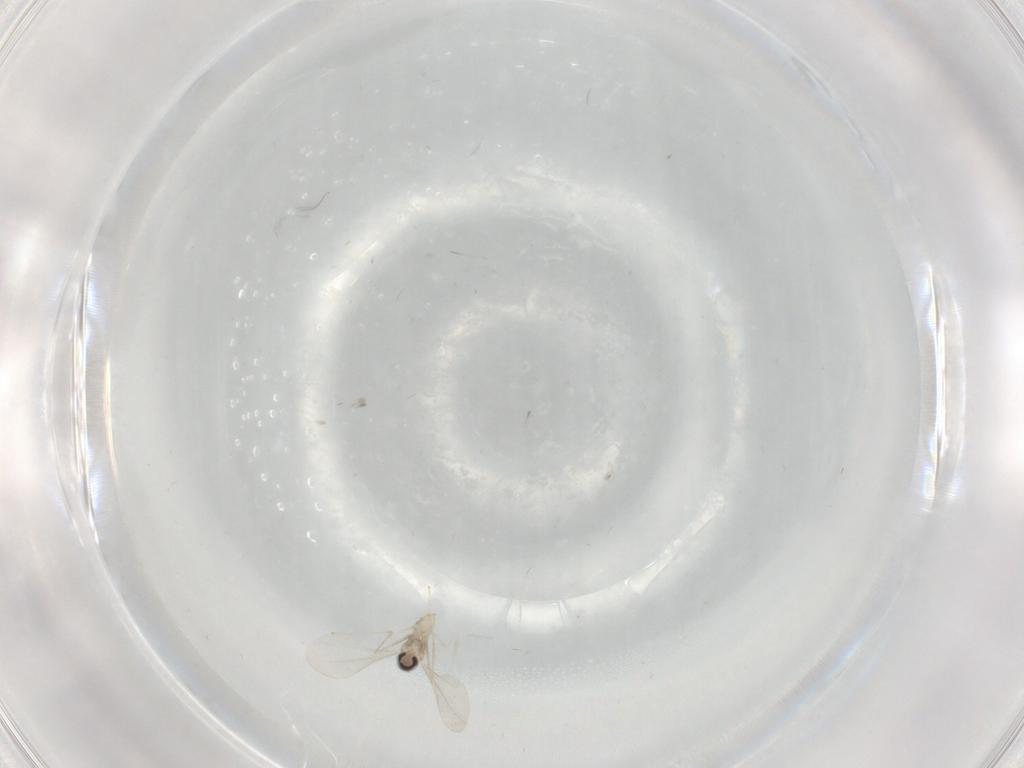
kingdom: Animalia
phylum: Arthropoda
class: Insecta
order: Diptera
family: Cecidomyiidae
